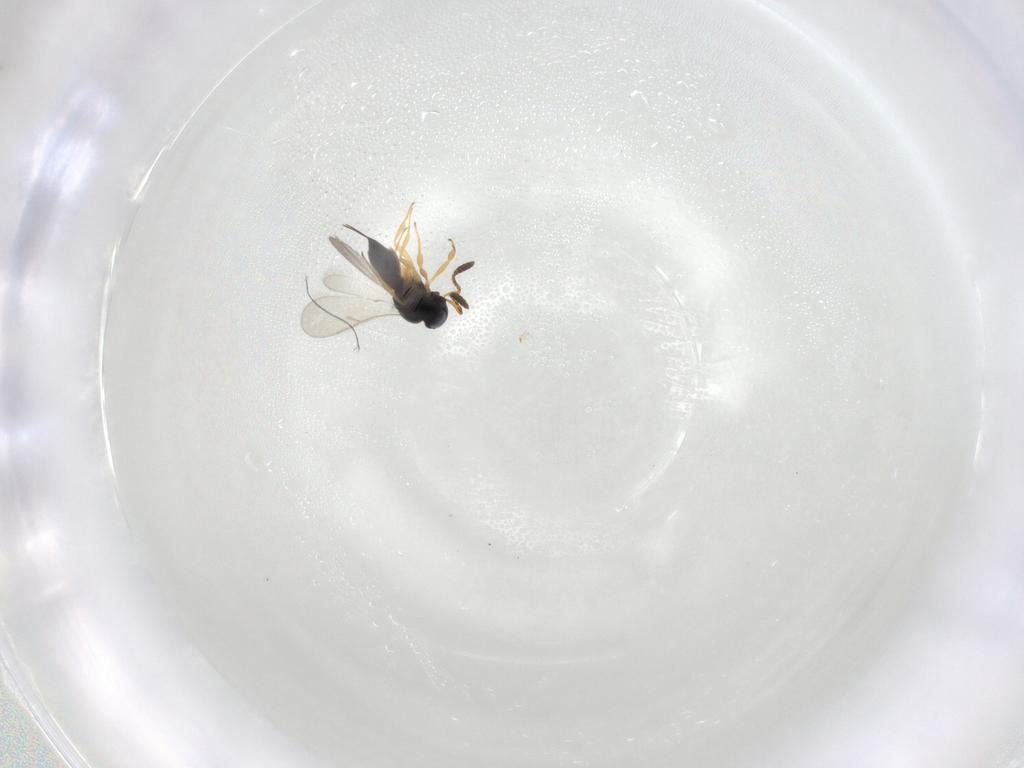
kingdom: Animalia
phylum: Arthropoda
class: Insecta
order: Hymenoptera
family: Scelionidae
